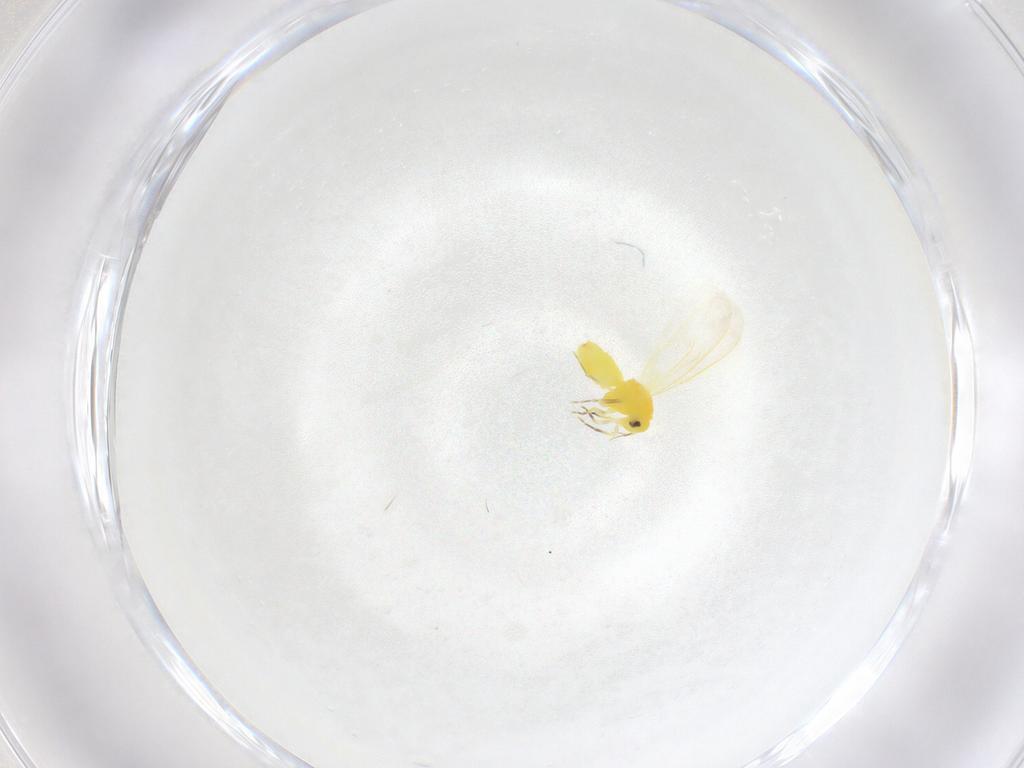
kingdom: Animalia
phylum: Arthropoda
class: Insecta
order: Hemiptera
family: Aleyrodidae
